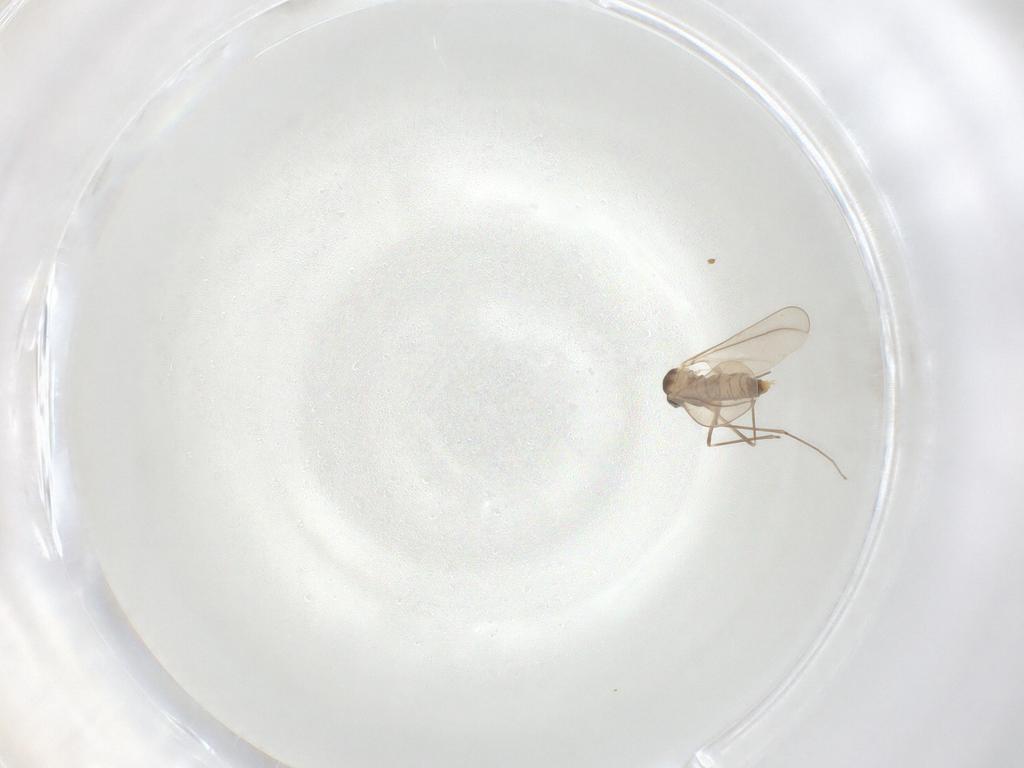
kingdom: Animalia
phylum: Arthropoda
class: Insecta
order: Diptera
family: Cecidomyiidae
